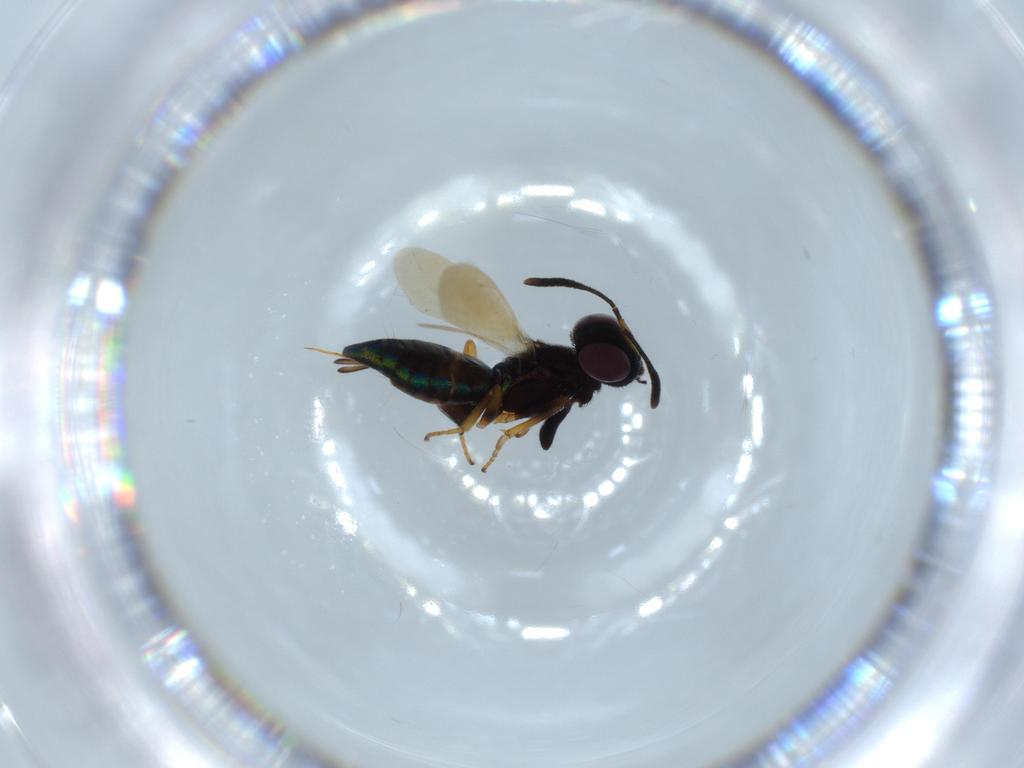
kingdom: Animalia
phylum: Arthropoda
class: Insecta
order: Hymenoptera
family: Eupelmidae
